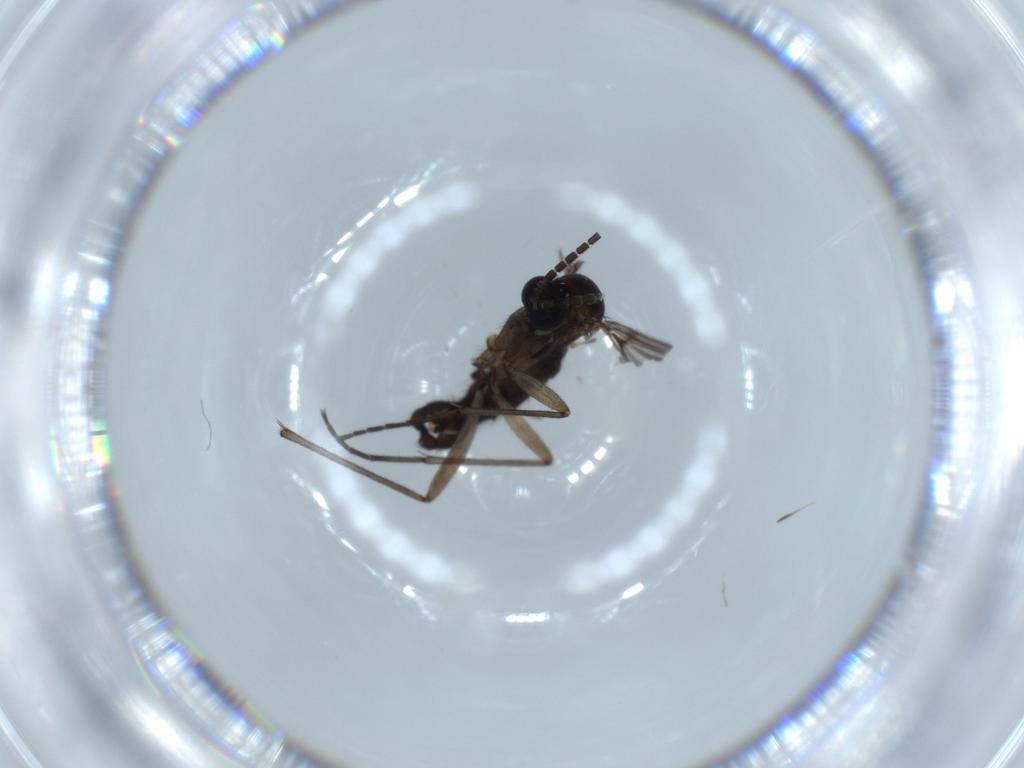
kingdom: Animalia
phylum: Arthropoda
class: Insecta
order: Diptera
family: Sciaridae
